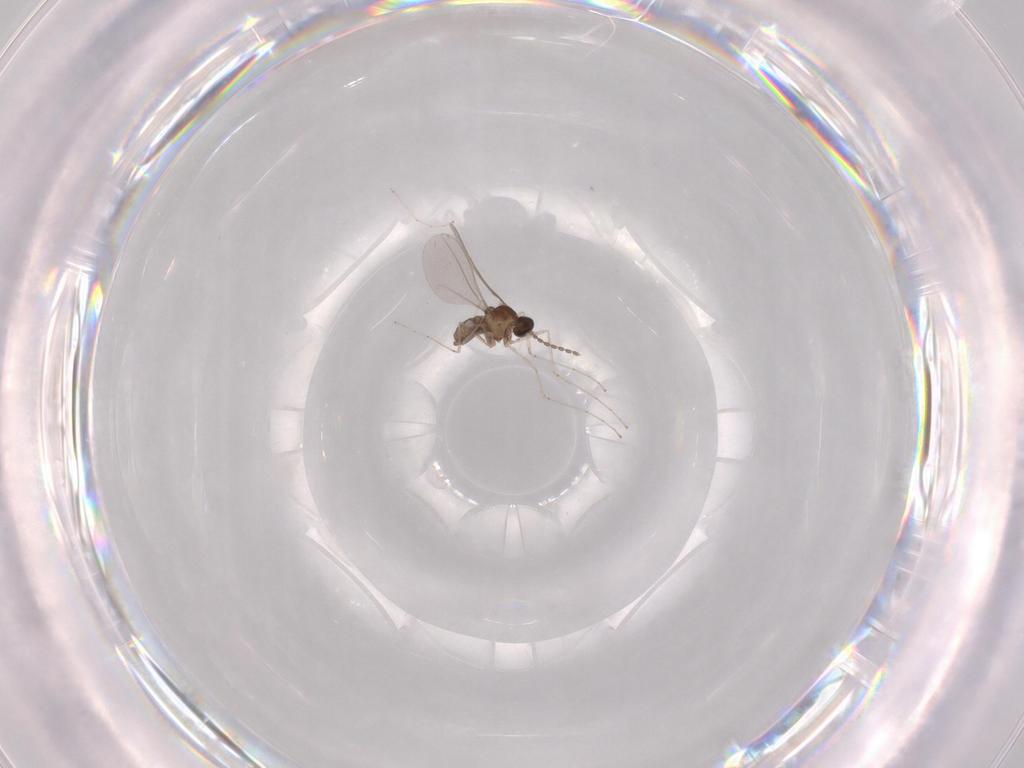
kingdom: Animalia
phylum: Arthropoda
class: Insecta
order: Diptera
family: Cecidomyiidae
